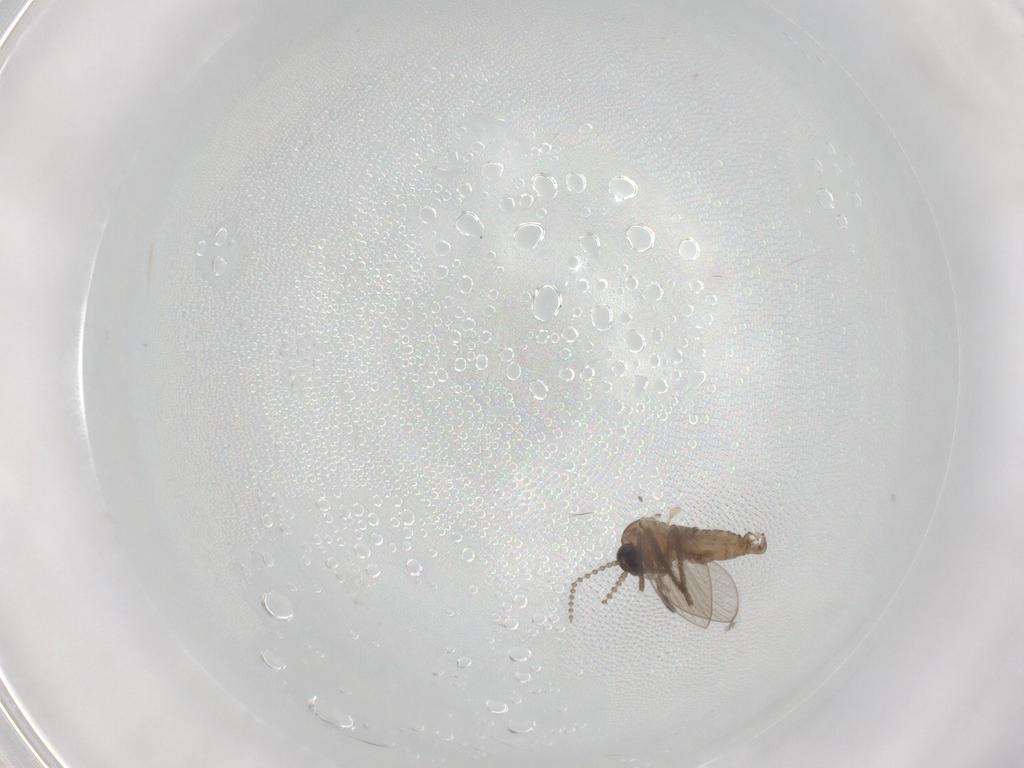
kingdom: Animalia
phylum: Arthropoda
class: Insecta
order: Diptera
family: Psychodidae
